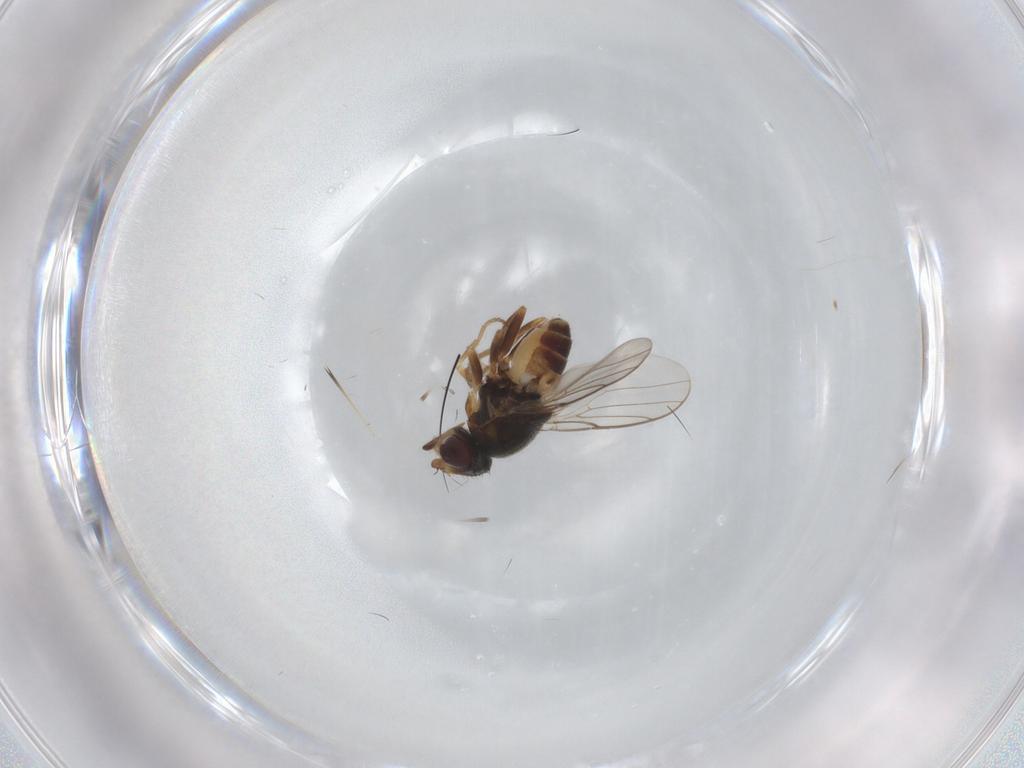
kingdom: Animalia
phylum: Arthropoda
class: Insecta
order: Diptera
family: Chloropidae
